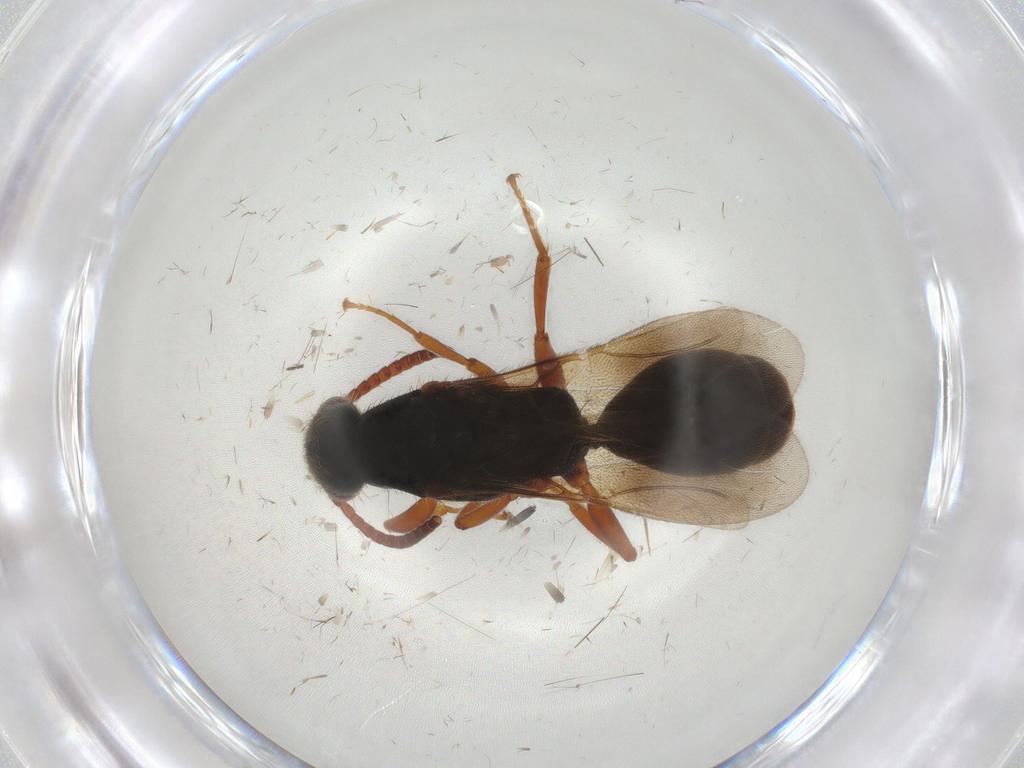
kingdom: Animalia
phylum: Arthropoda
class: Insecta
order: Hymenoptera
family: Bethylidae
